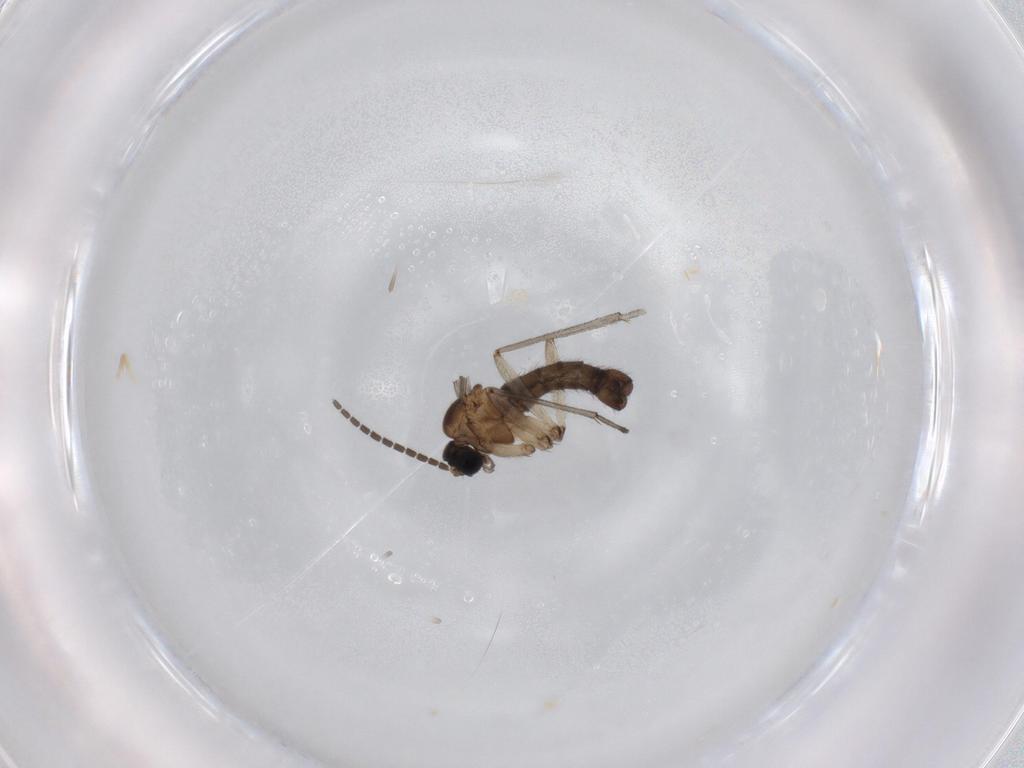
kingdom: Animalia
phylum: Arthropoda
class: Insecta
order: Diptera
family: Sciaridae
